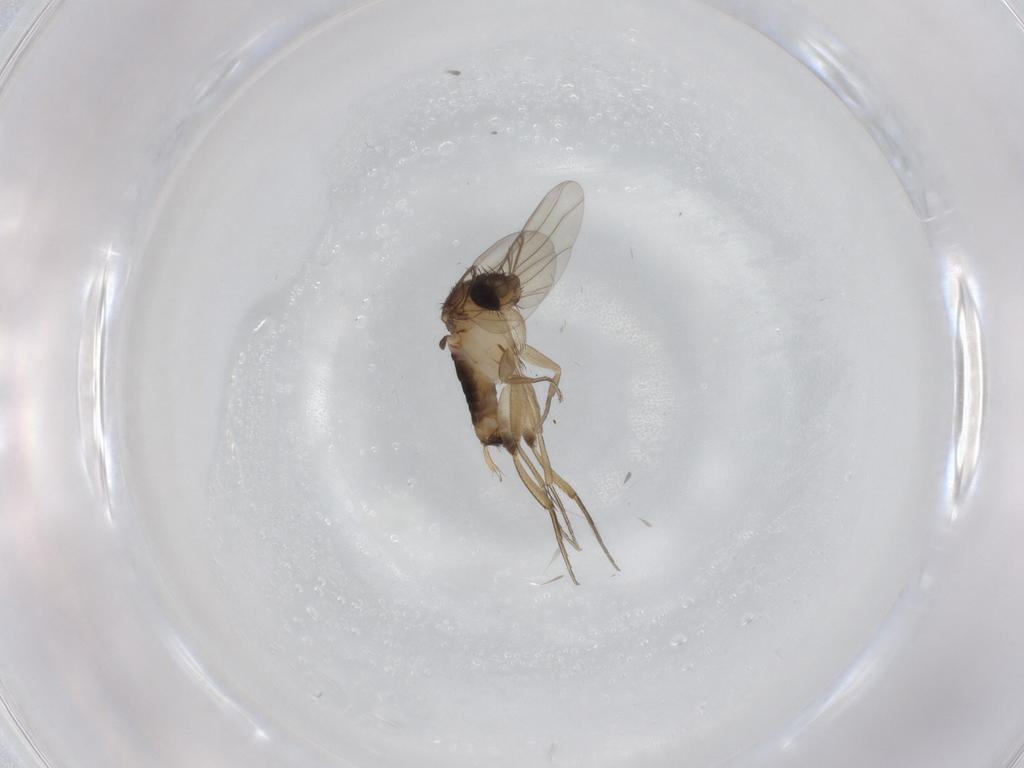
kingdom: Animalia
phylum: Arthropoda
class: Insecta
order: Diptera
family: Phoridae
